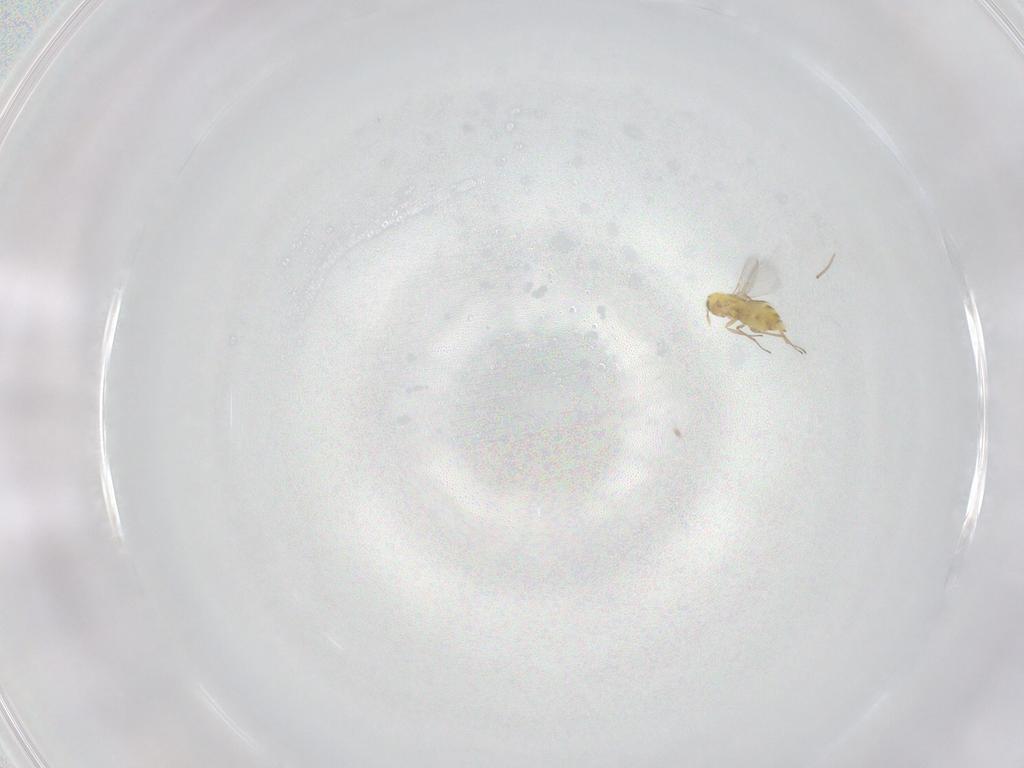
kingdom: Animalia
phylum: Arthropoda
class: Insecta
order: Hymenoptera
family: Aphelinidae
